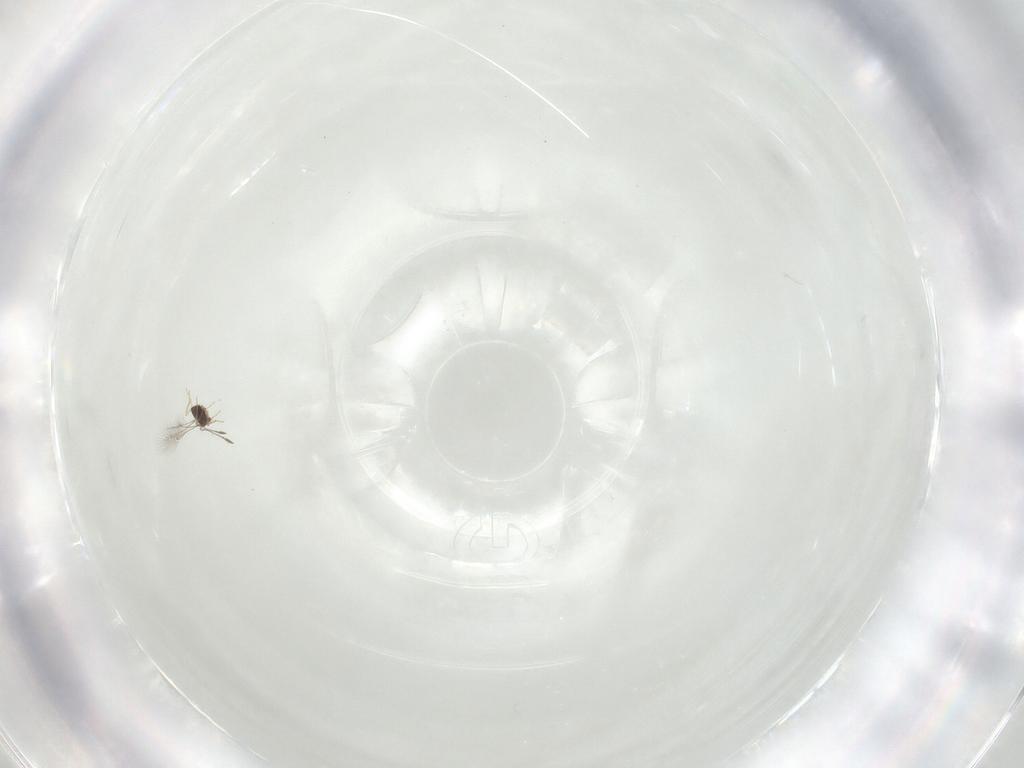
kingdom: Animalia
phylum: Arthropoda
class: Insecta
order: Diptera
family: Sciaridae
